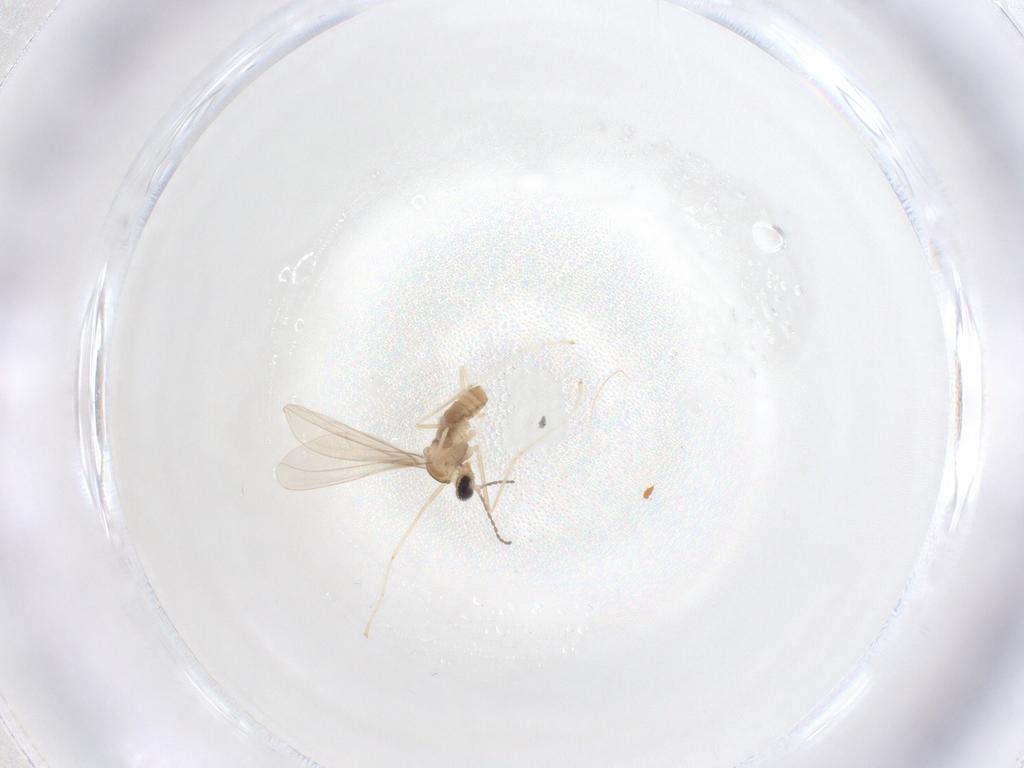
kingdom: Animalia
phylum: Arthropoda
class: Insecta
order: Diptera
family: Cecidomyiidae
